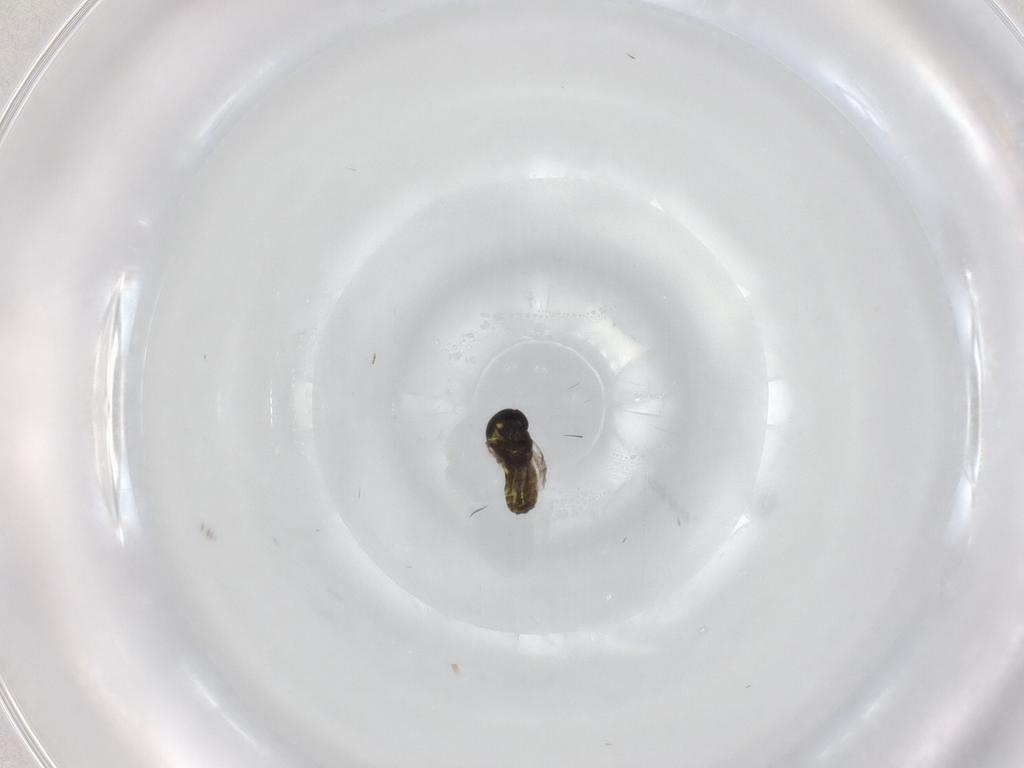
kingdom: Animalia
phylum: Arthropoda
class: Insecta
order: Diptera
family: Ceratopogonidae
